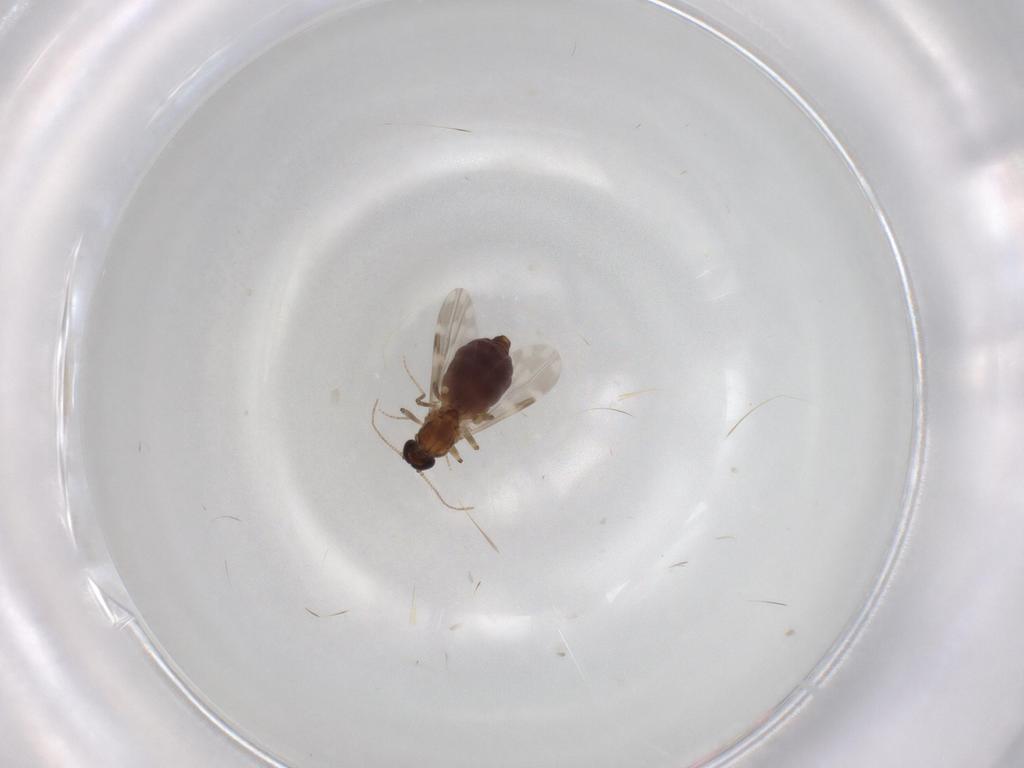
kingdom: Animalia
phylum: Arthropoda
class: Insecta
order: Diptera
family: Ceratopogonidae
